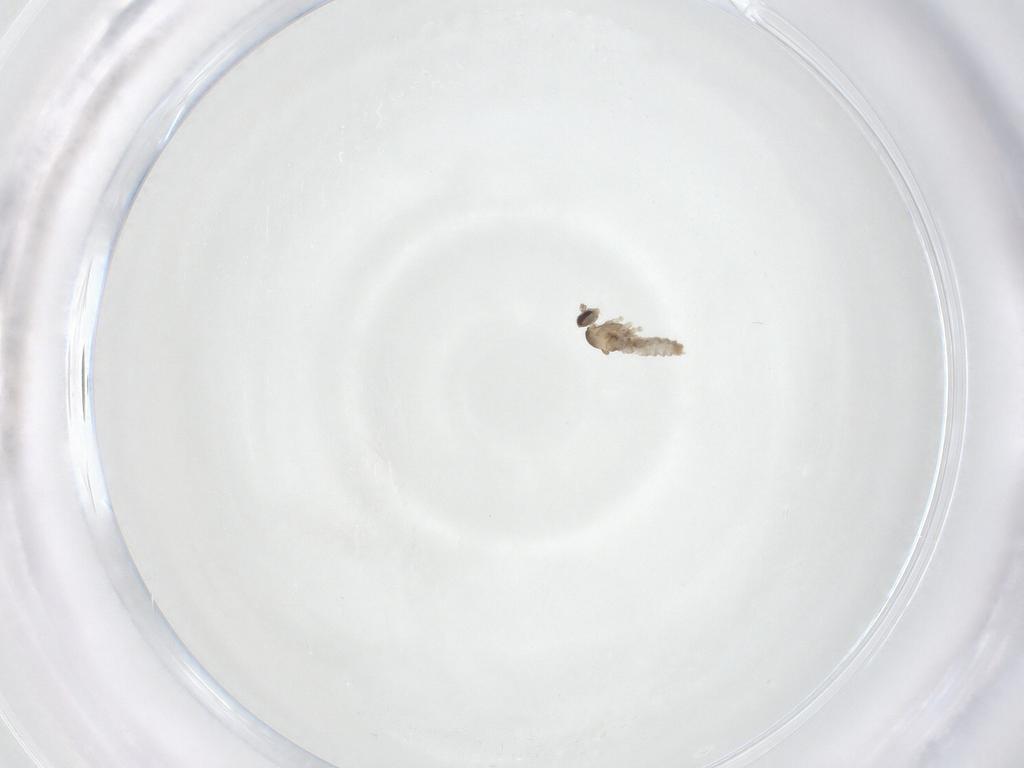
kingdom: Animalia
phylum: Arthropoda
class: Insecta
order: Diptera
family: Cecidomyiidae
